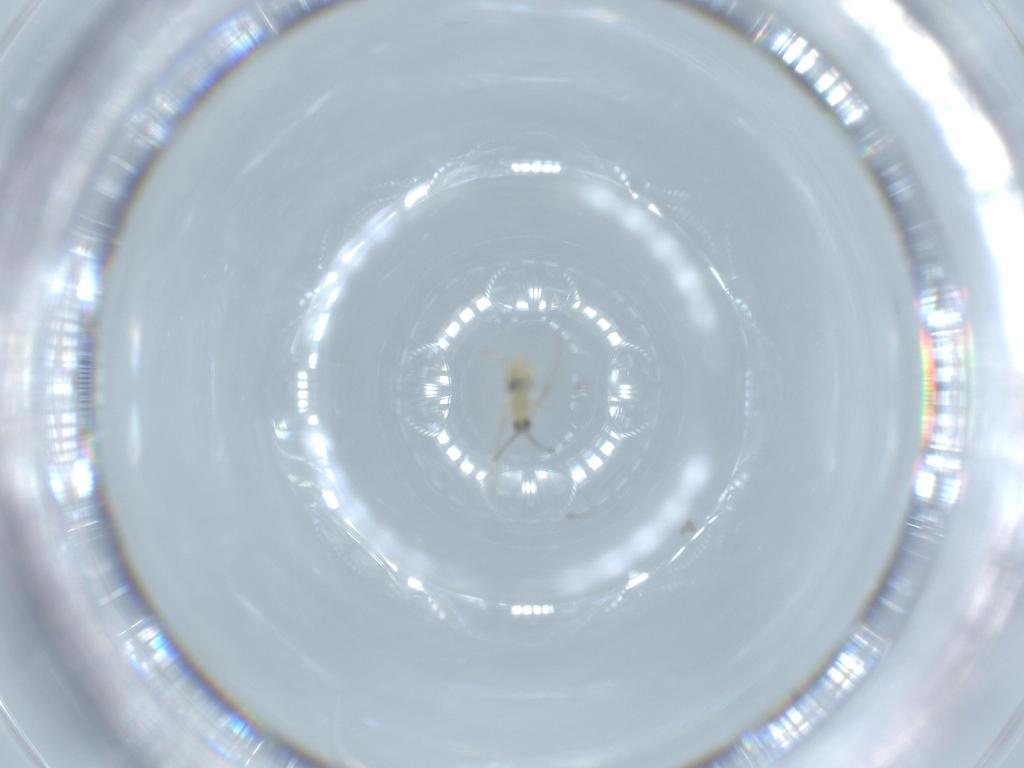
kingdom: Animalia
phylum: Arthropoda
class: Insecta
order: Diptera
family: Cecidomyiidae
